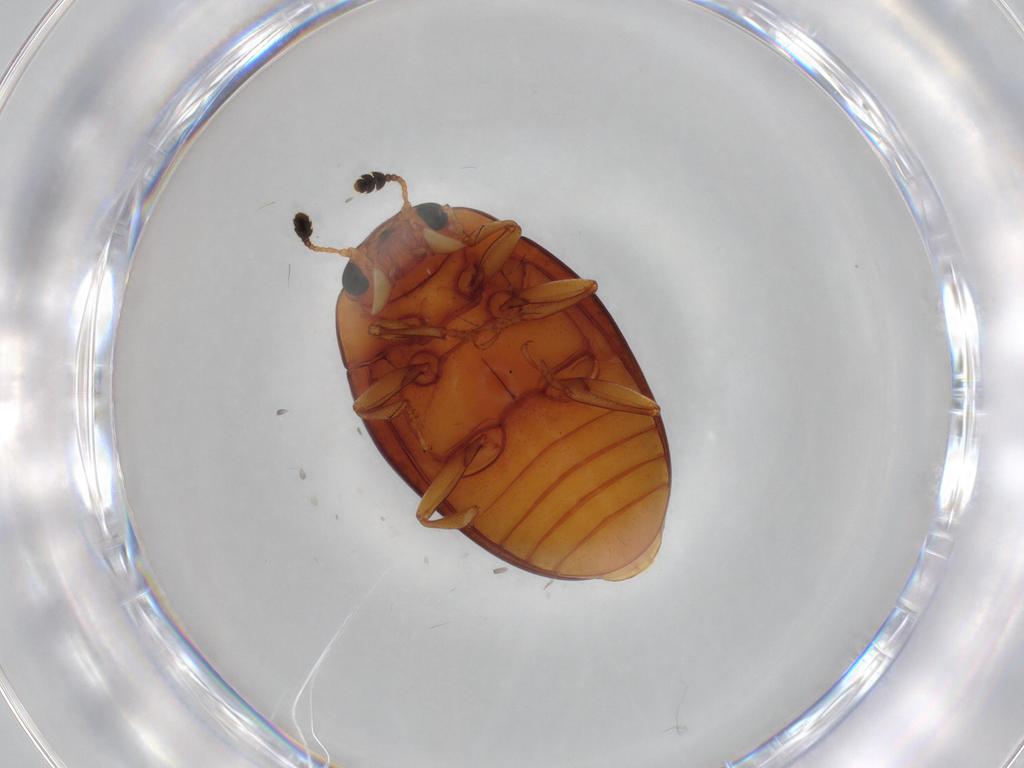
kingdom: Animalia
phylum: Arthropoda
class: Insecta
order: Coleoptera
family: Erotylidae
